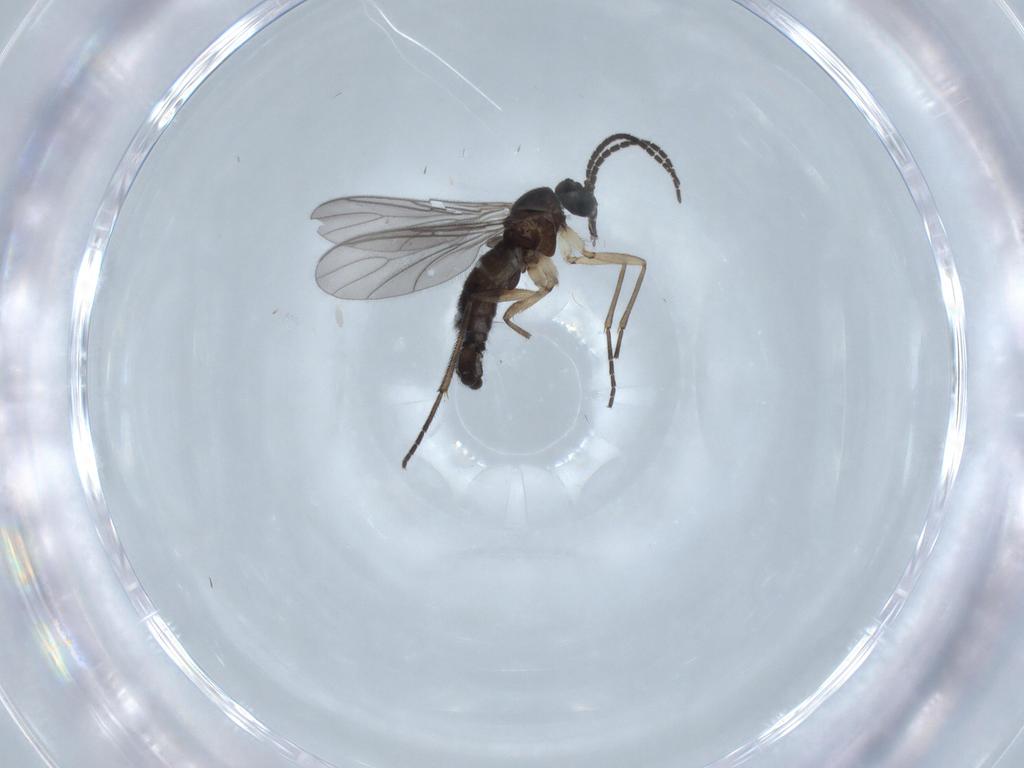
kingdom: Animalia
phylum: Arthropoda
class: Insecta
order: Diptera
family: Sciaridae
